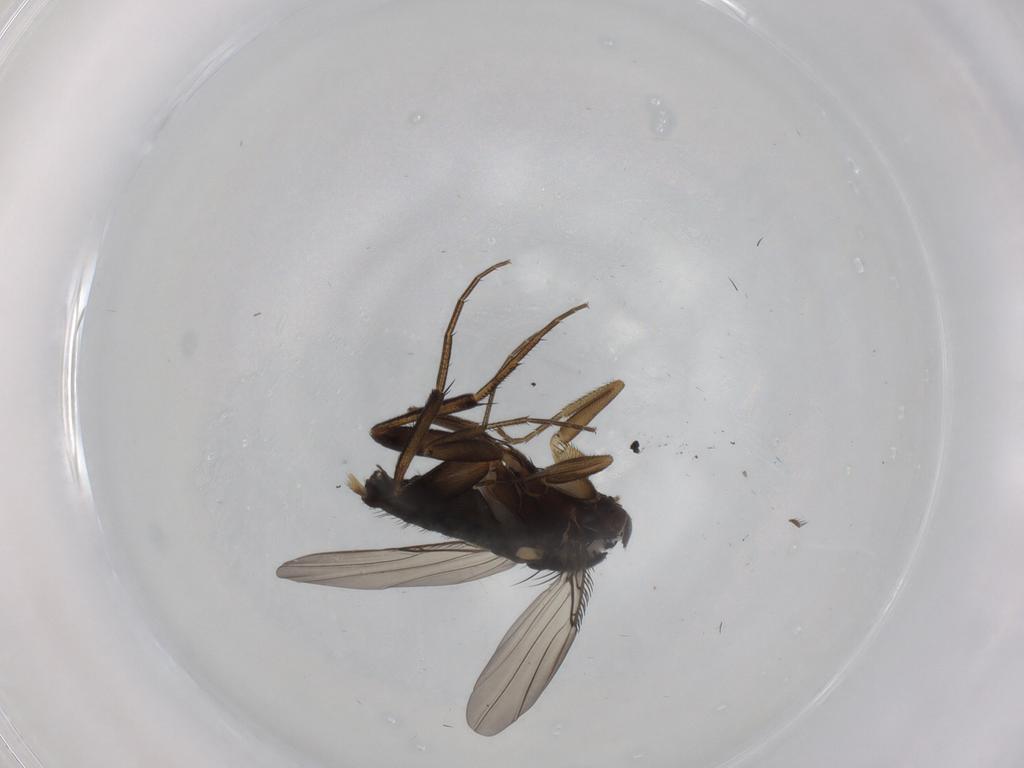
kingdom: Animalia
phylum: Arthropoda
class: Insecta
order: Diptera
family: Phoridae
